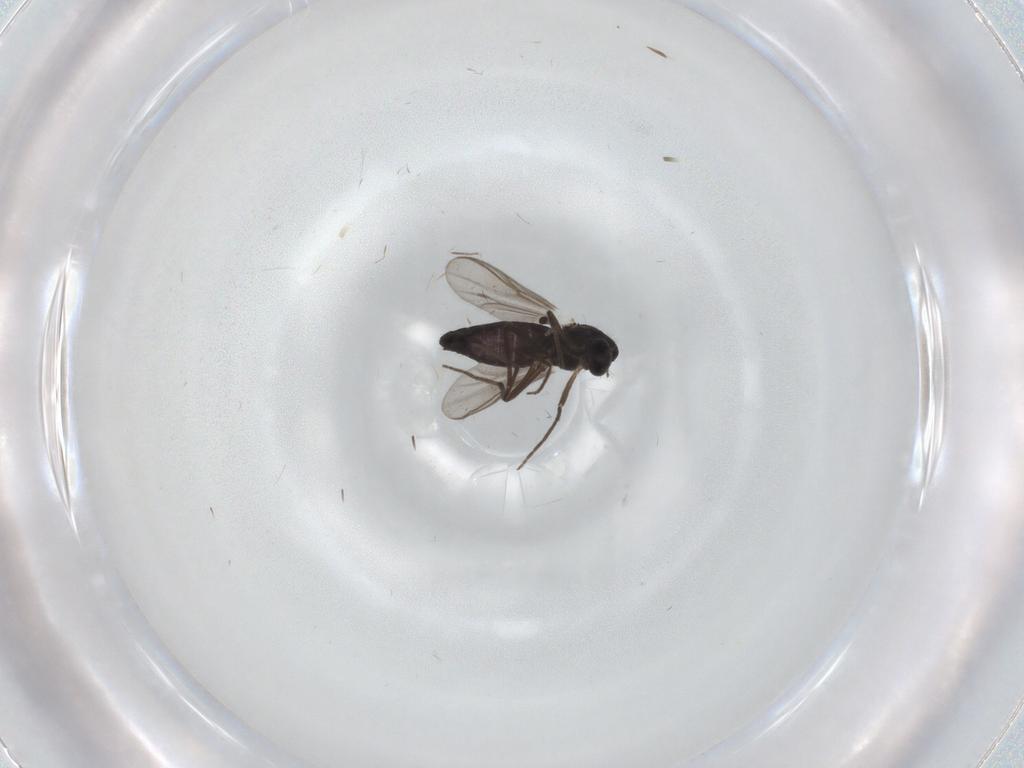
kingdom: Animalia
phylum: Arthropoda
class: Insecta
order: Diptera
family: Chironomidae
